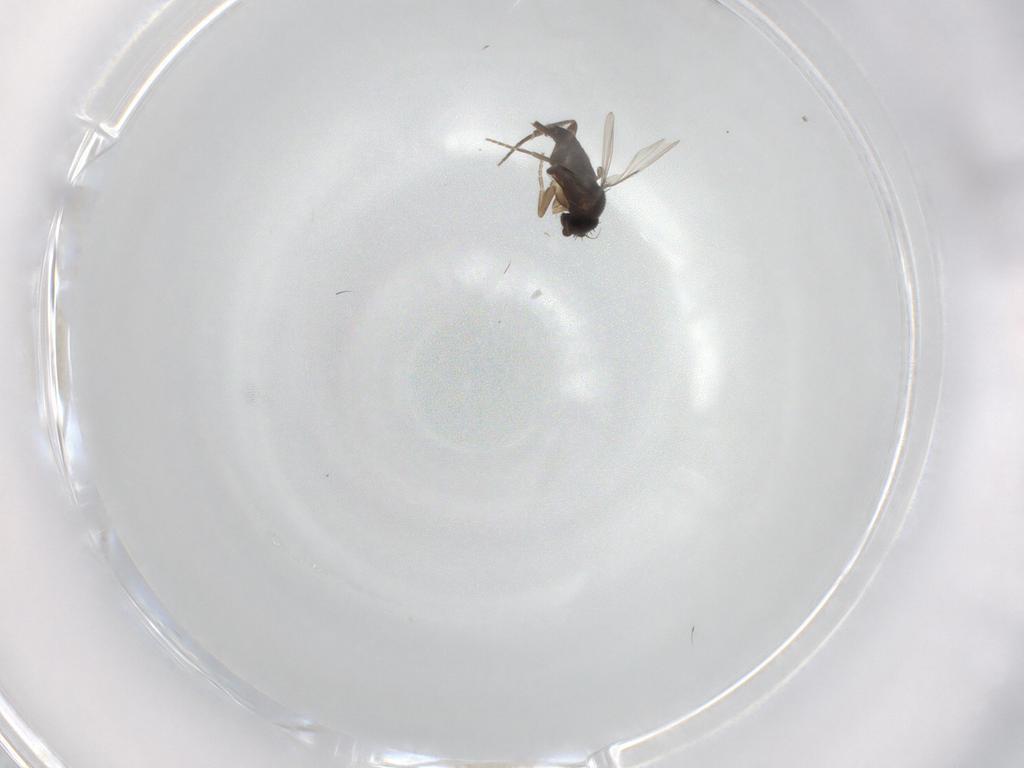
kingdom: Animalia
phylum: Arthropoda
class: Insecta
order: Diptera
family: Phoridae
